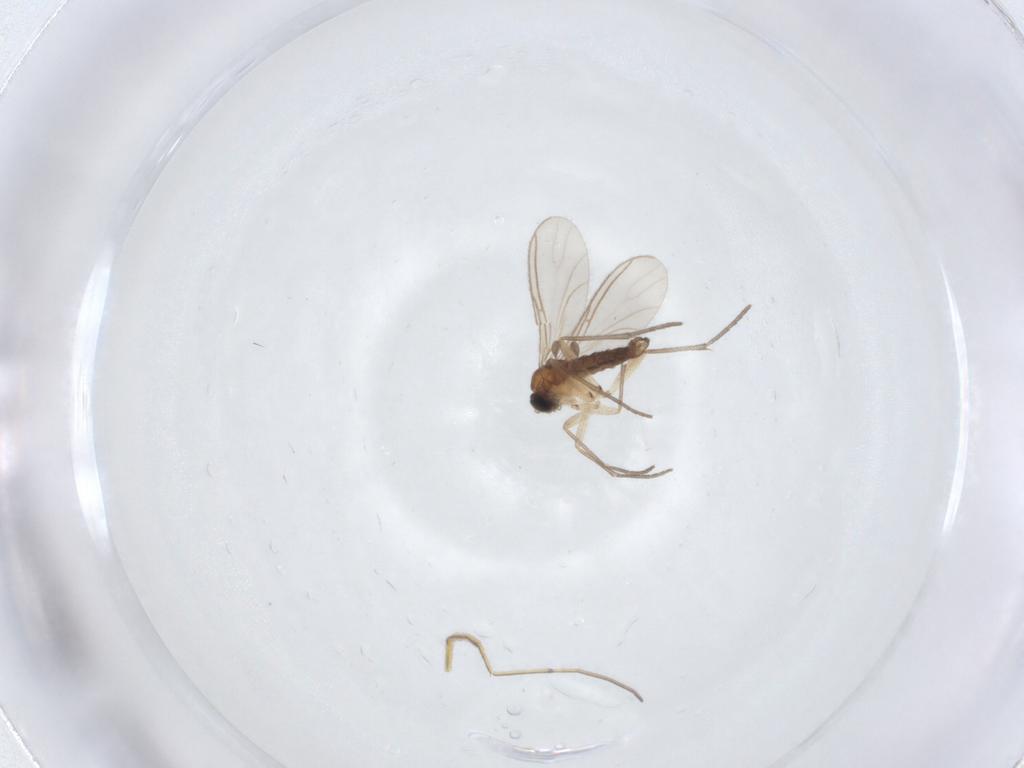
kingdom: Animalia
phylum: Arthropoda
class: Insecta
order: Diptera
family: Sciaridae
